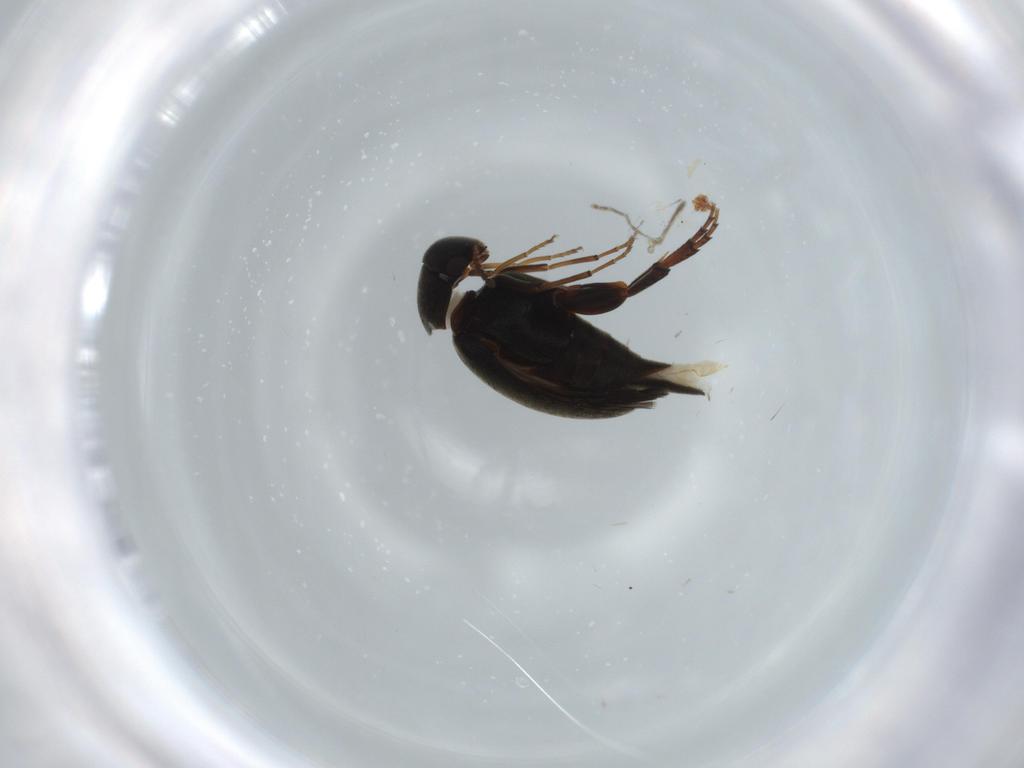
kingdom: Animalia
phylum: Arthropoda
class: Insecta
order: Coleoptera
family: Mordellidae
